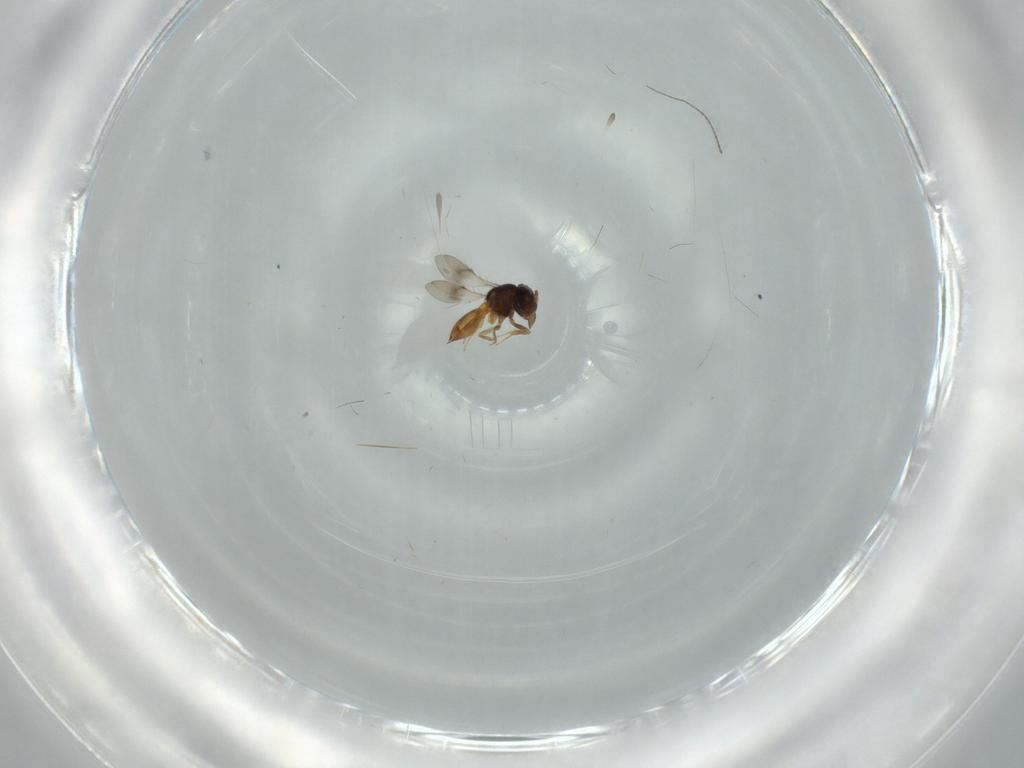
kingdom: Animalia
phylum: Arthropoda
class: Insecta
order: Hymenoptera
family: Scelionidae
